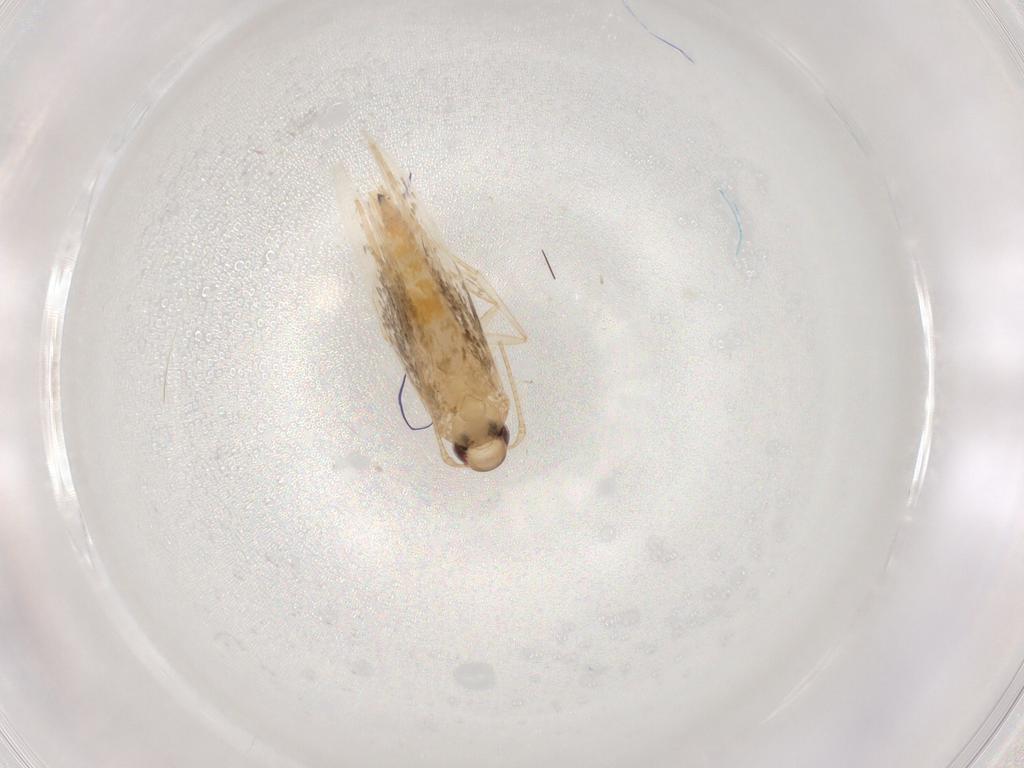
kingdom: Animalia
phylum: Arthropoda
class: Insecta
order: Lepidoptera
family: Cosmopterigidae
